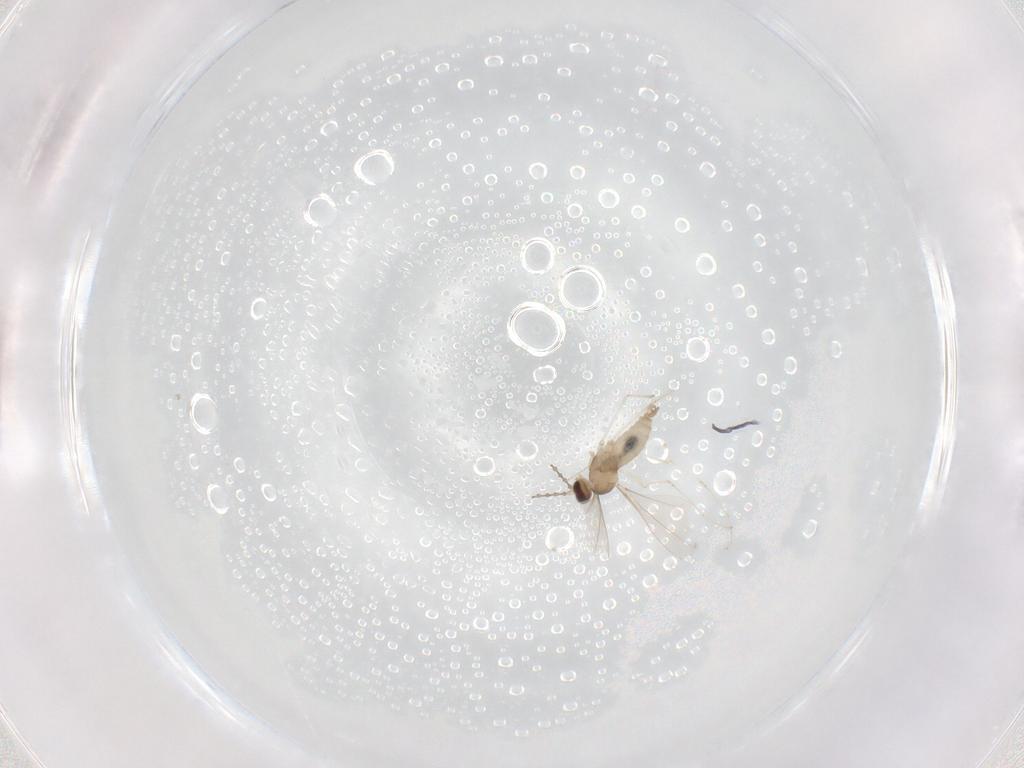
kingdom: Animalia
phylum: Arthropoda
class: Insecta
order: Diptera
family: Cecidomyiidae
